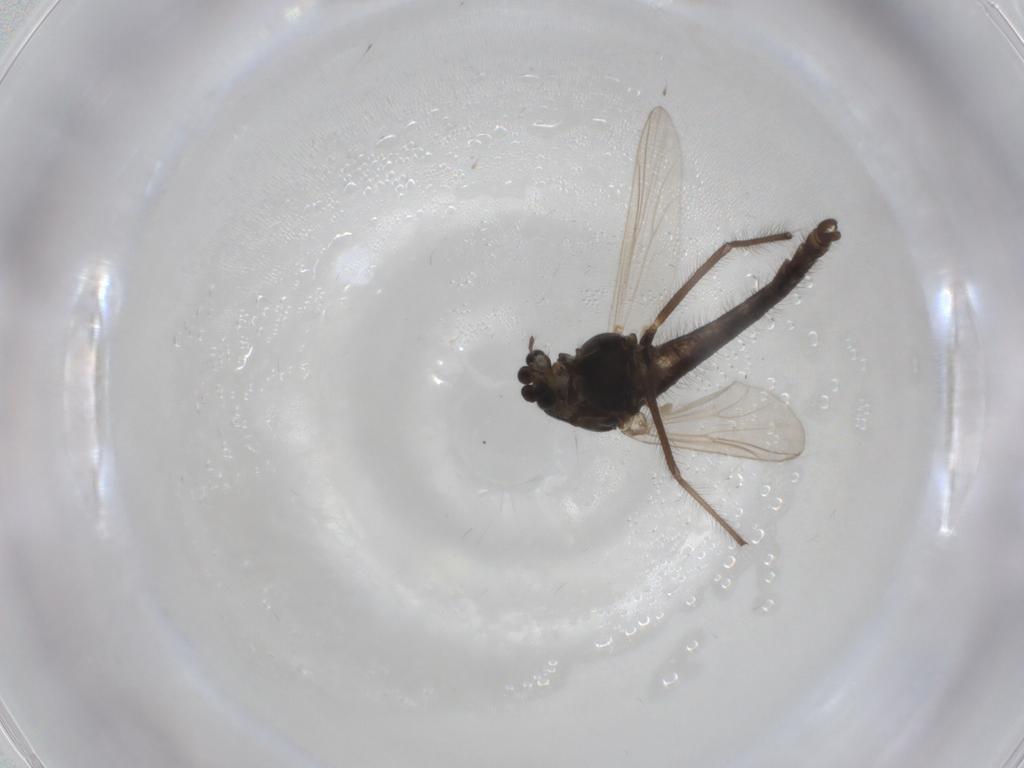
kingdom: Animalia
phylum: Arthropoda
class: Insecta
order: Diptera
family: Chironomidae
